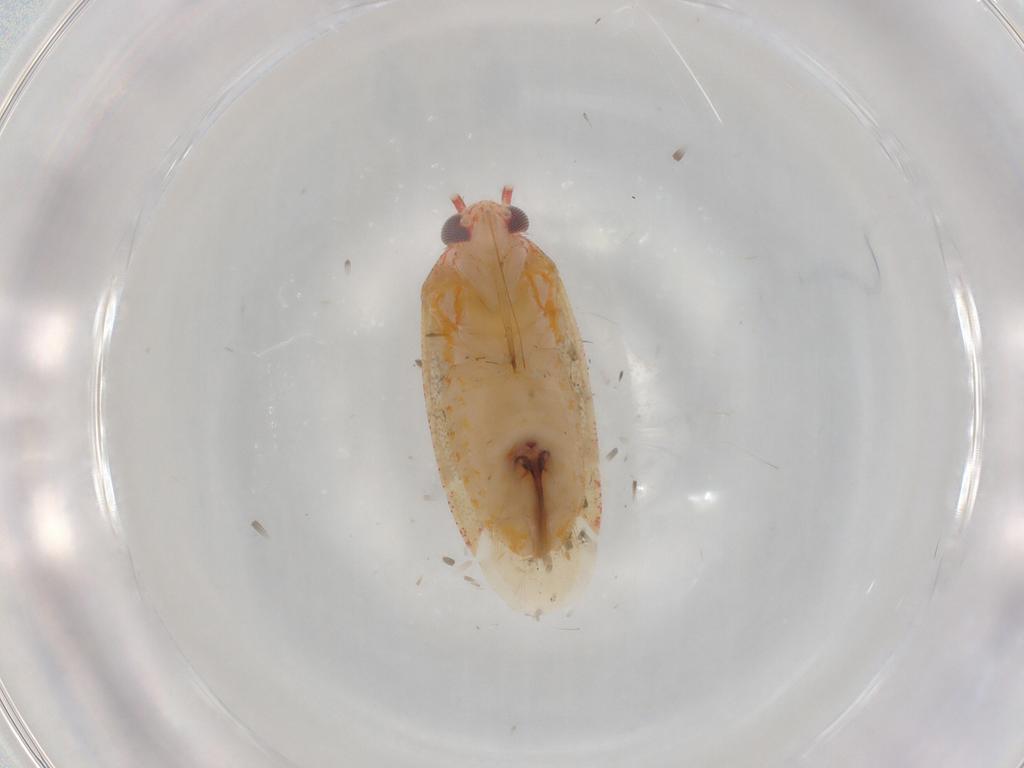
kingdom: Animalia
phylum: Arthropoda
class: Insecta
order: Hemiptera
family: Miridae
